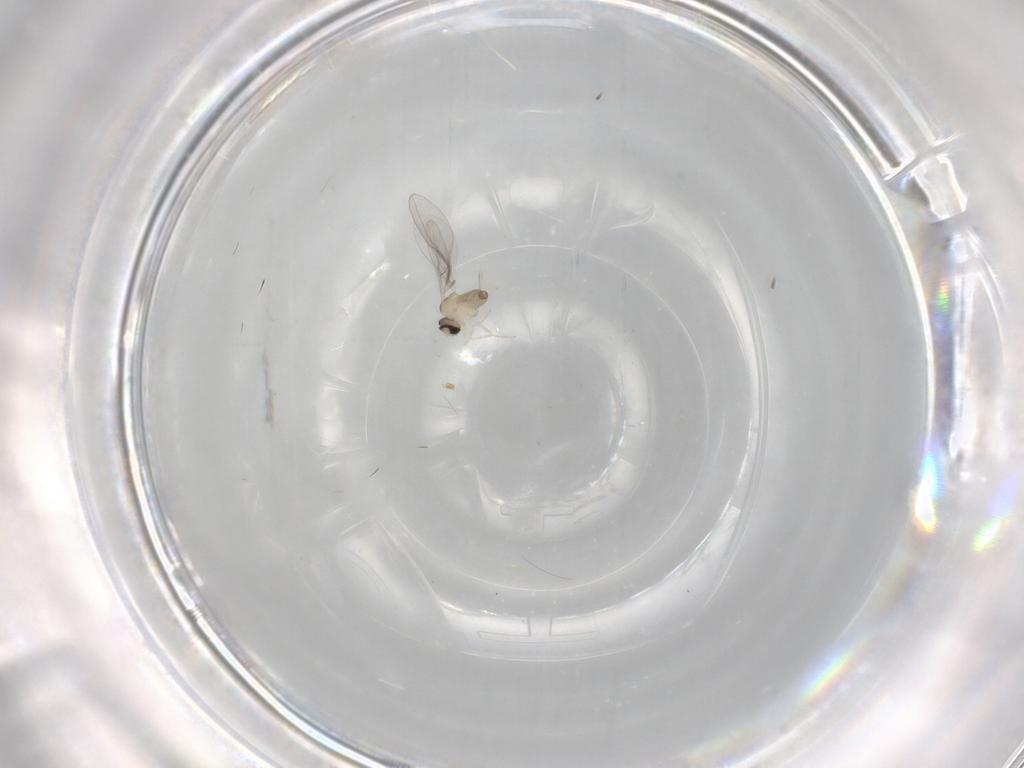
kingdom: Animalia
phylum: Arthropoda
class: Insecta
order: Diptera
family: Cecidomyiidae
